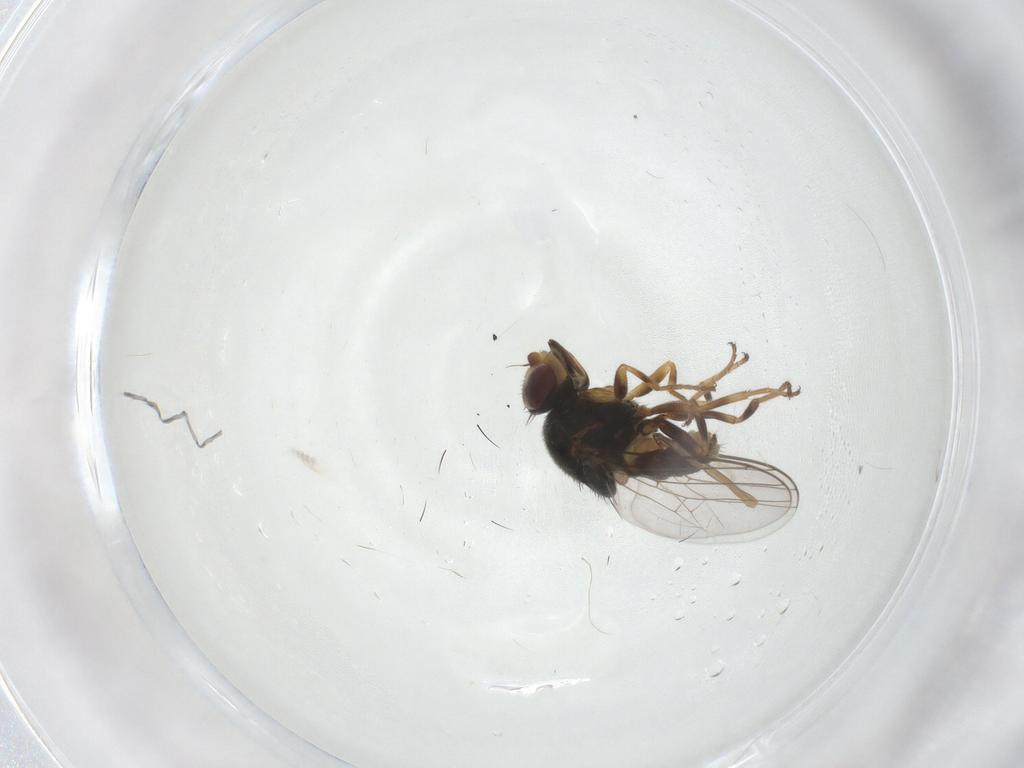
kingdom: Animalia
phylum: Arthropoda
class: Insecta
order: Diptera
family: Chloropidae
